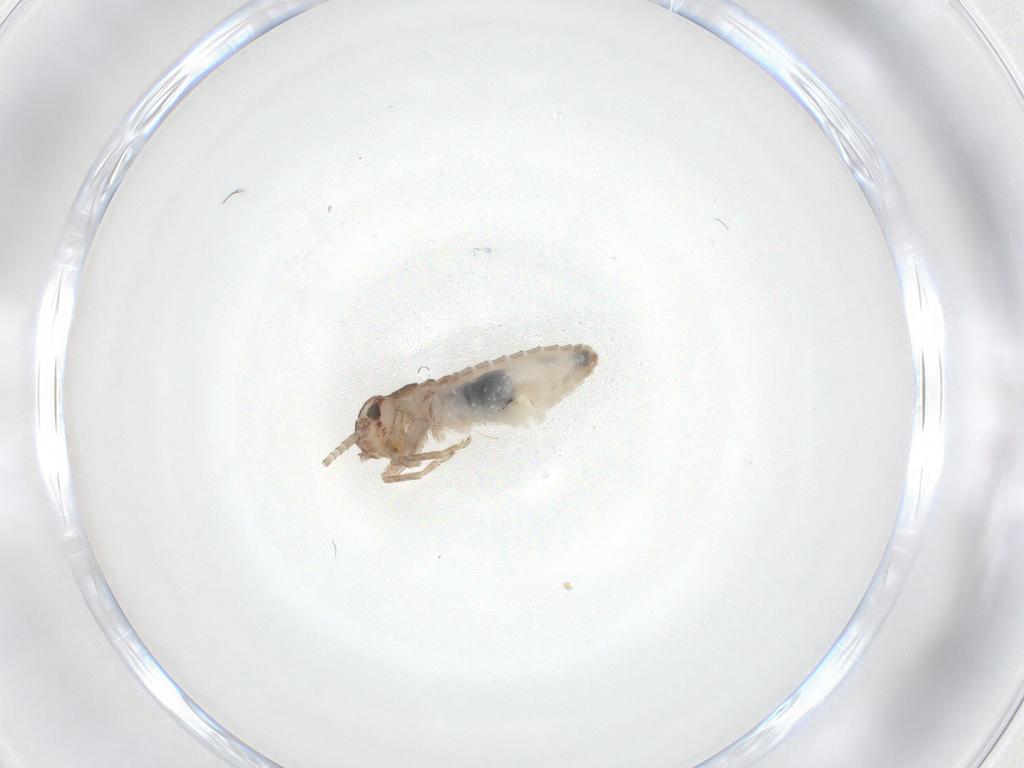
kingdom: Animalia
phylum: Arthropoda
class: Insecta
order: Orthoptera
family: Mogoplistidae
